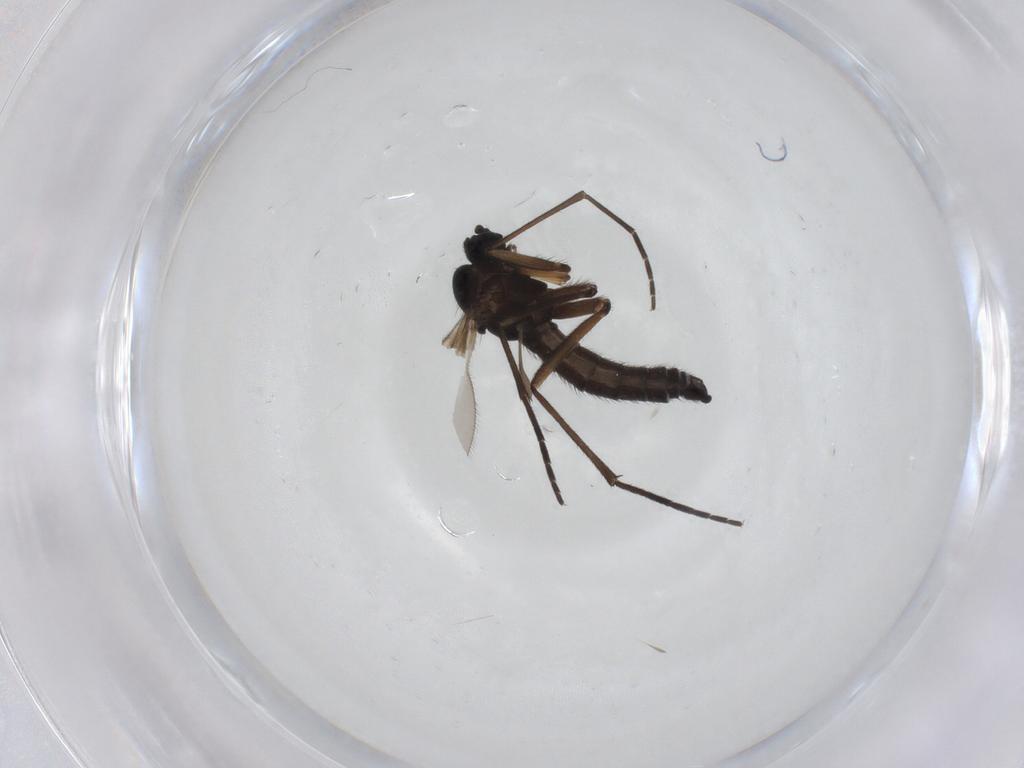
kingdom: Animalia
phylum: Arthropoda
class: Insecta
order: Diptera
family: Sciaridae
